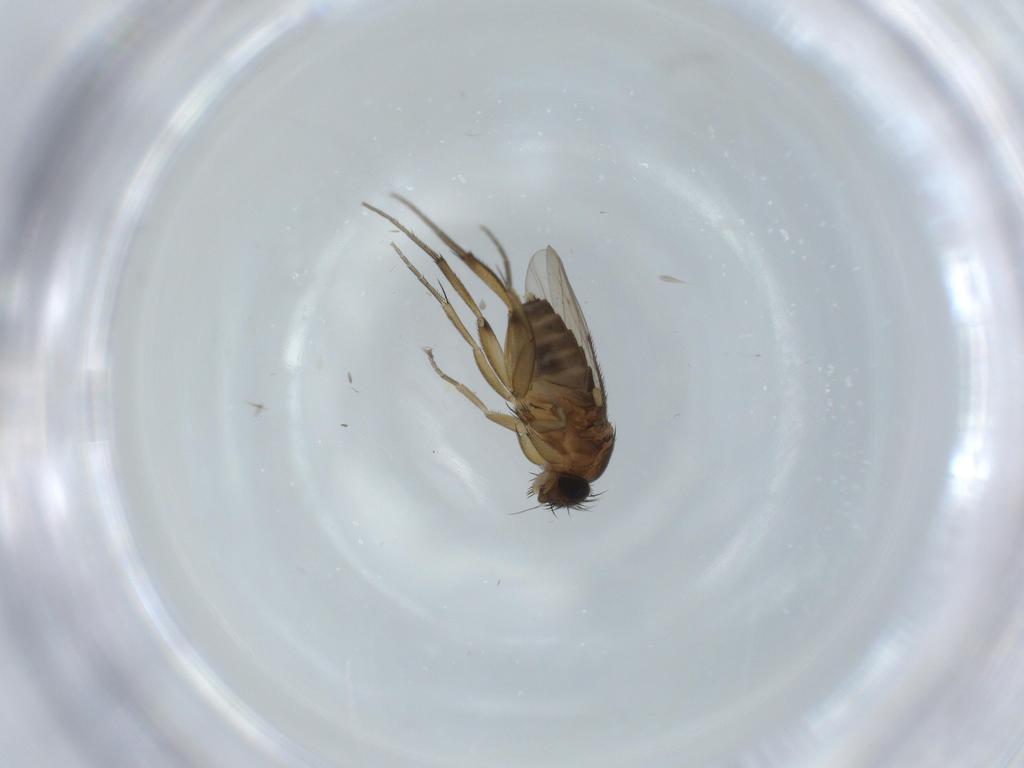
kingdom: Animalia
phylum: Arthropoda
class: Insecta
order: Diptera
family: Phoridae
